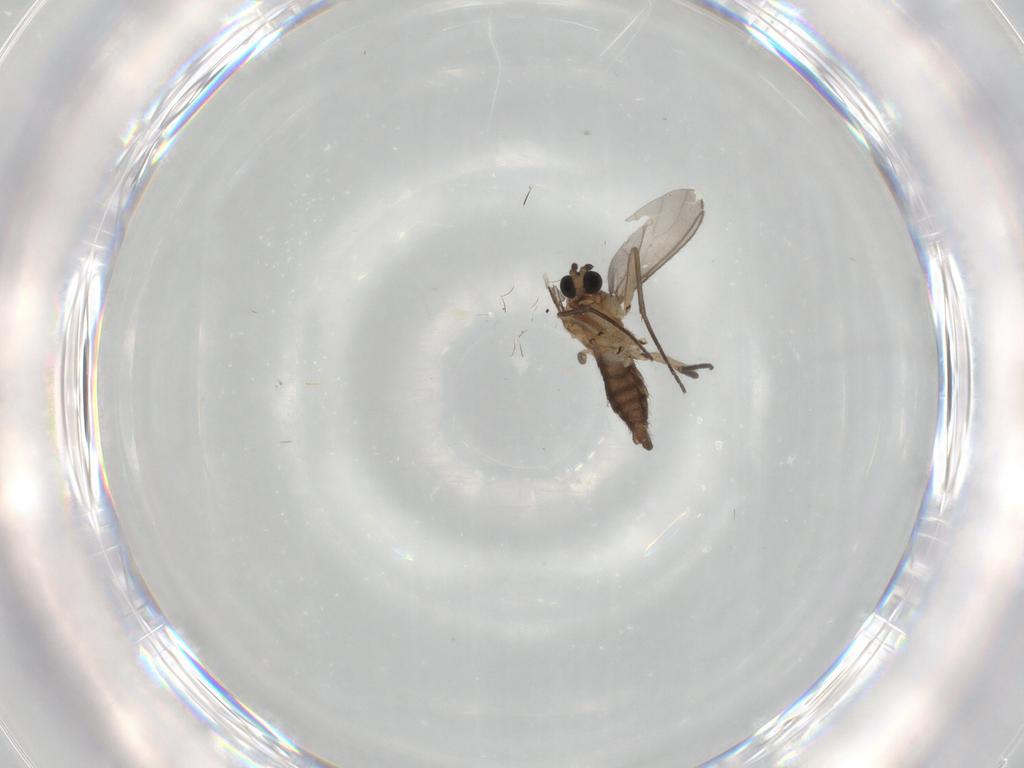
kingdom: Animalia
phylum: Arthropoda
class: Insecta
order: Diptera
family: Sciaridae
